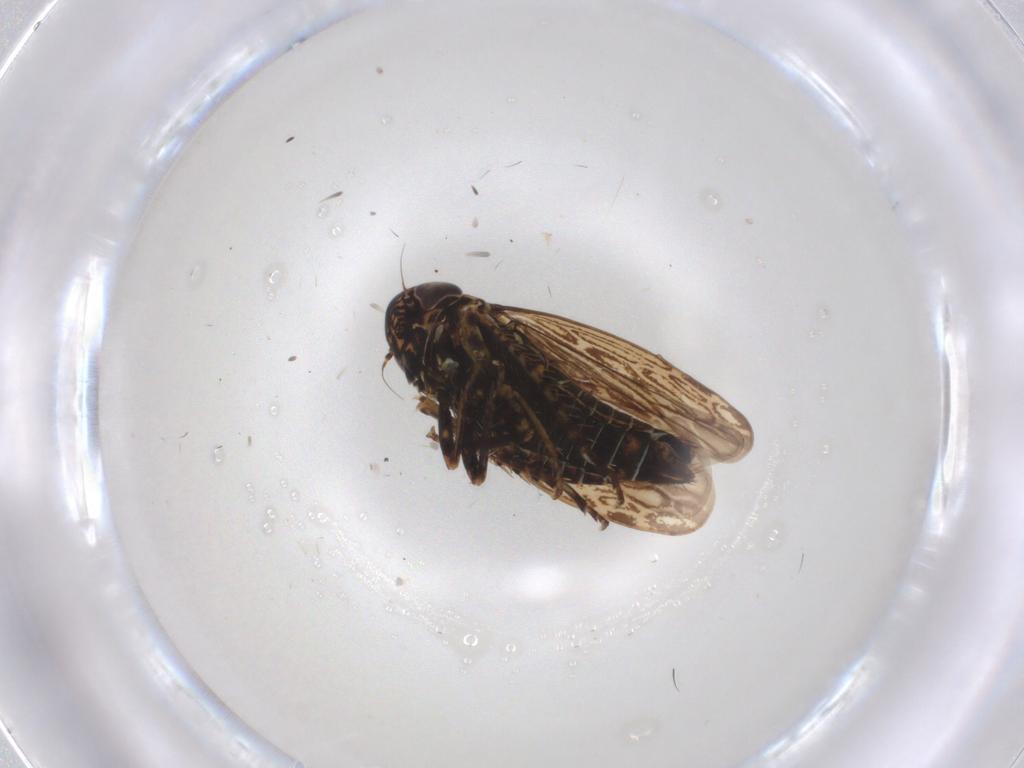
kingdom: Animalia
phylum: Arthropoda
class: Insecta
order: Hemiptera
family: Cicadellidae
